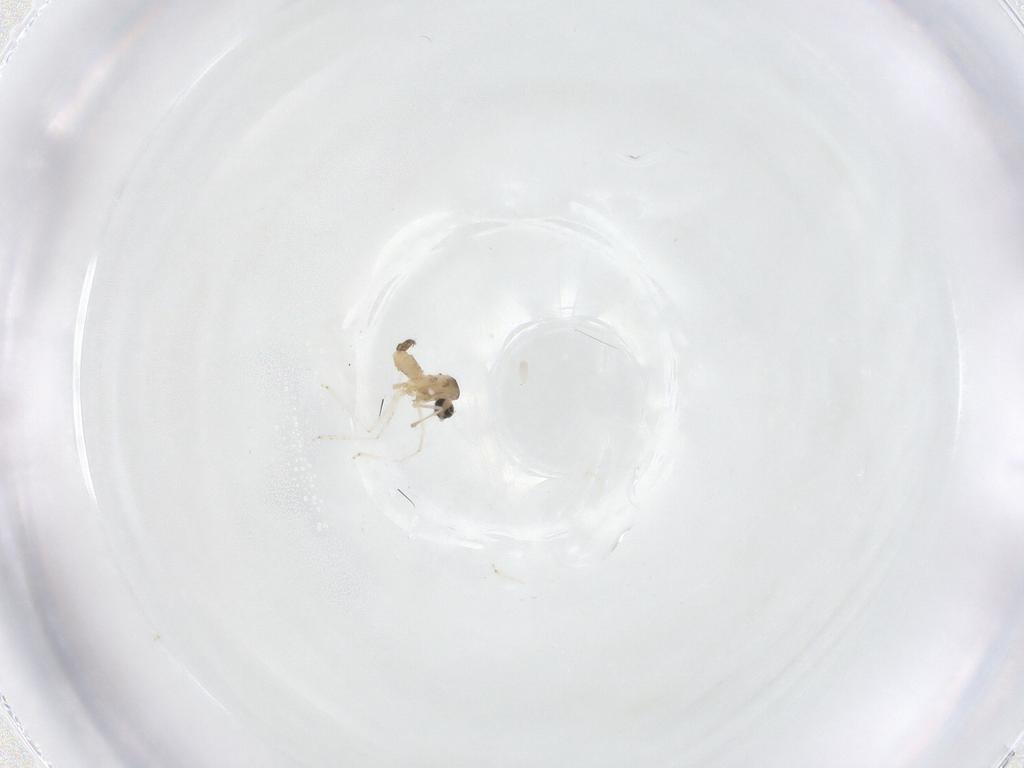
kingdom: Animalia
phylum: Arthropoda
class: Insecta
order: Diptera
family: Cecidomyiidae
